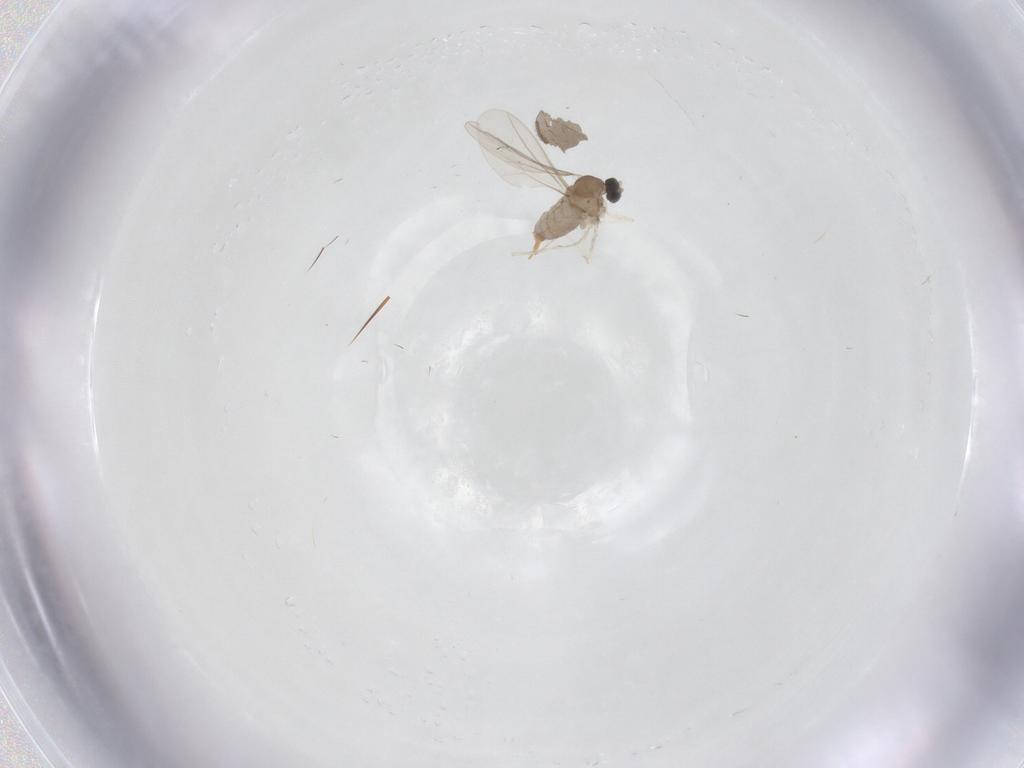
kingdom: Animalia
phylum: Arthropoda
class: Insecta
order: Diptera
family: Cecidomyiidae
